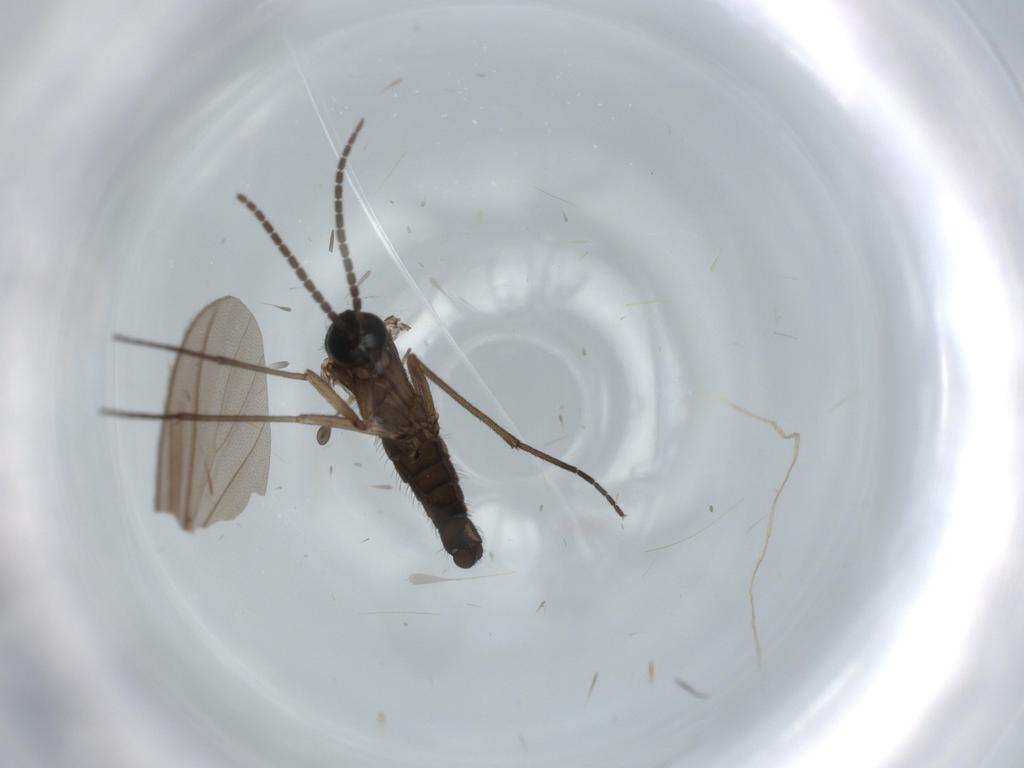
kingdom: Animalia
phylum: Arthropoda
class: Insecta
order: Diptera
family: Sciaridae
